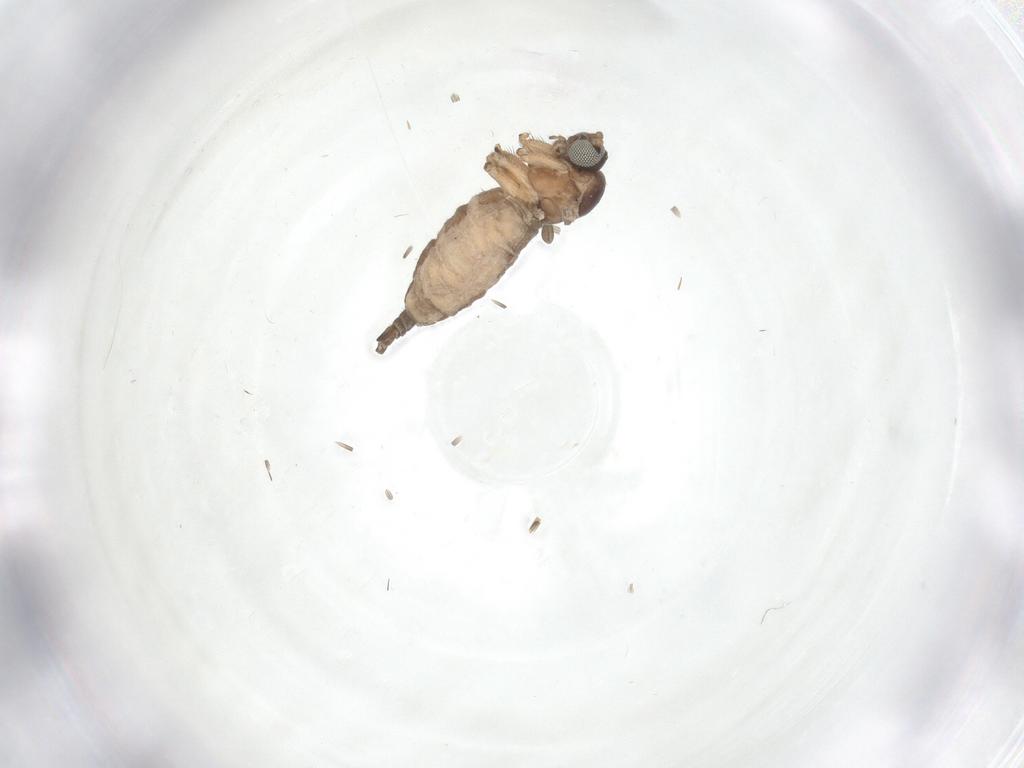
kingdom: Animalia
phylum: Arthropoda
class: Insecta
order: Diptera
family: Sciaridae
